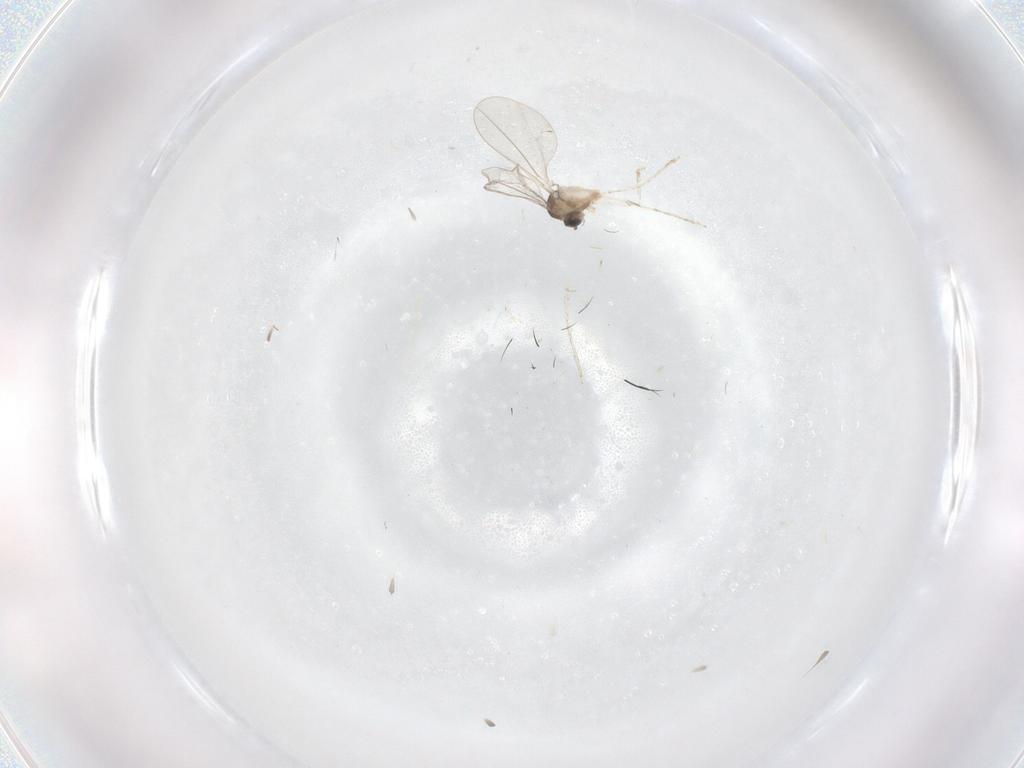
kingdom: Animalia
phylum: Arthropoda
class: Insecta
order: Diptera
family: Cecidomyiidae
